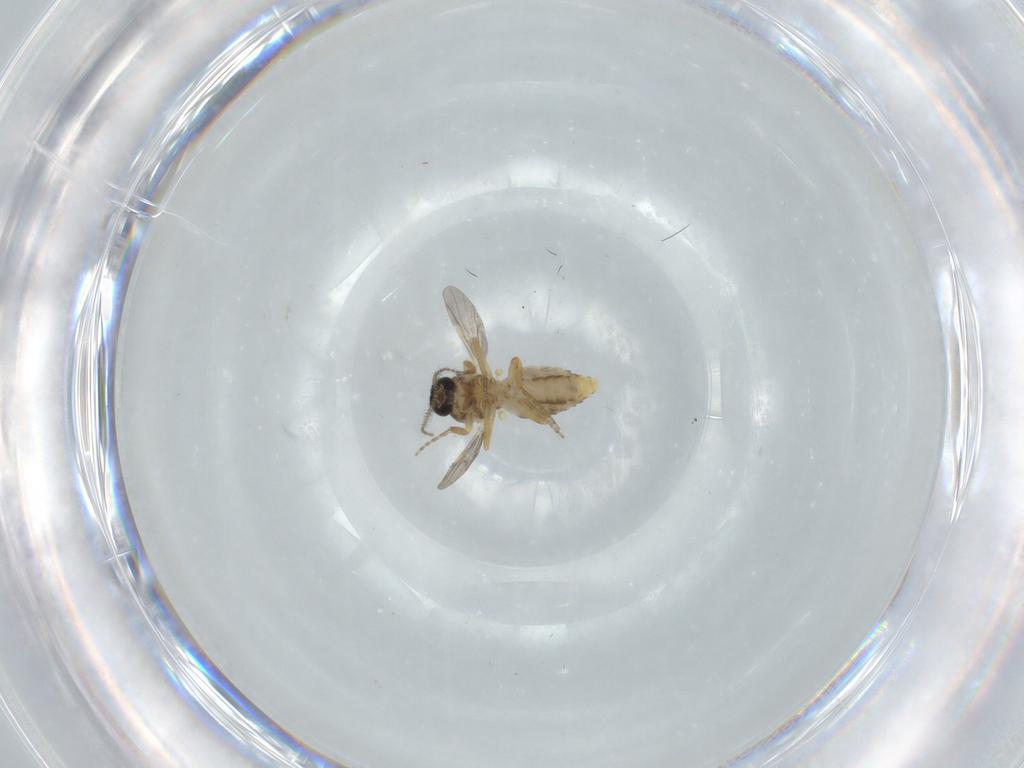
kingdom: Animalia
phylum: Arthropoda
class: Insecta
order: Diptera
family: Ceratopogonidae
